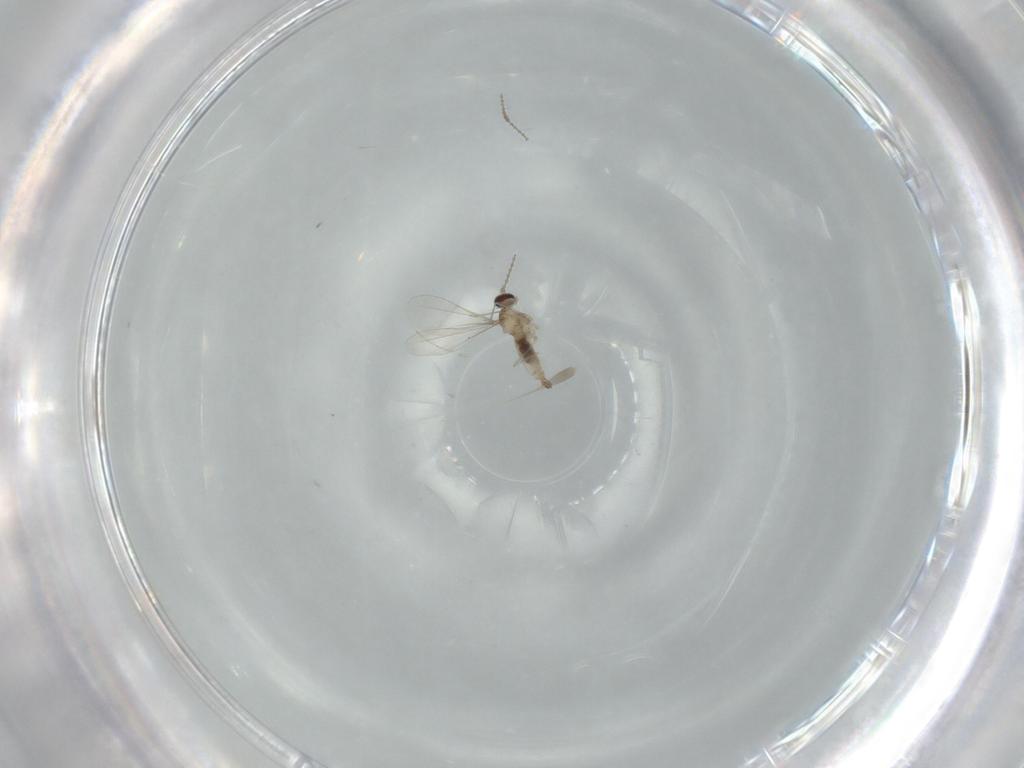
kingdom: Animalia
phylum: Arthropoda
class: Insecta
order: Diptera
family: Cecidomyiidae
